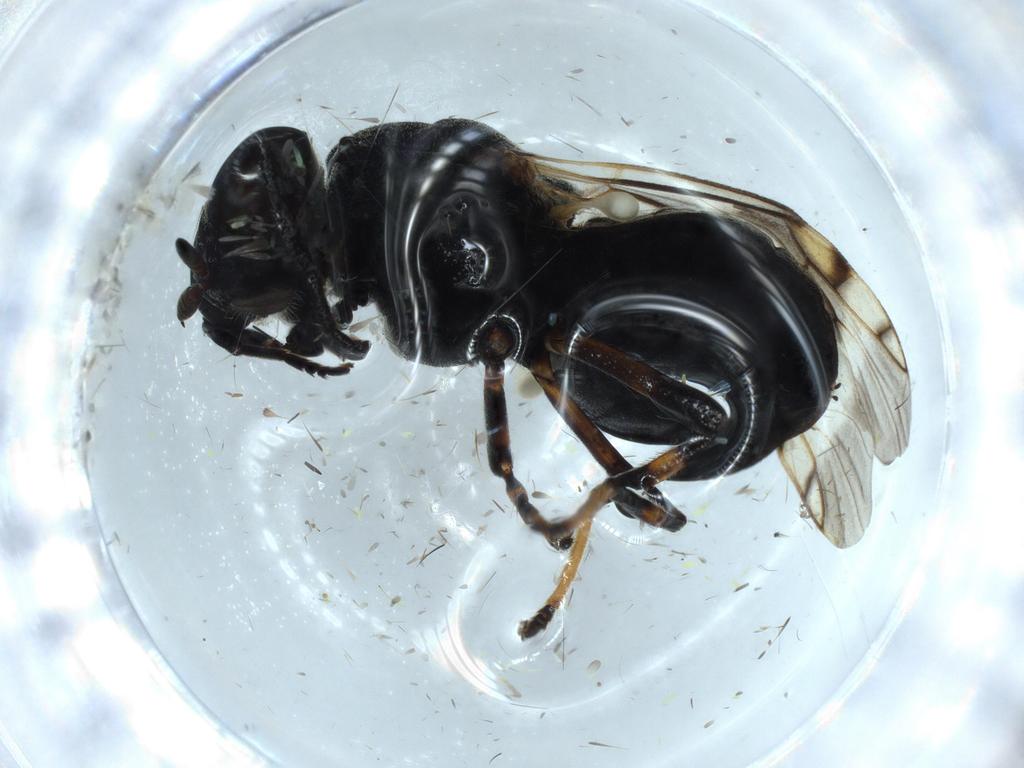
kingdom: Animalia
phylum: Arthropoda
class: Insecta
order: Diptera
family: Stratiomyidae
